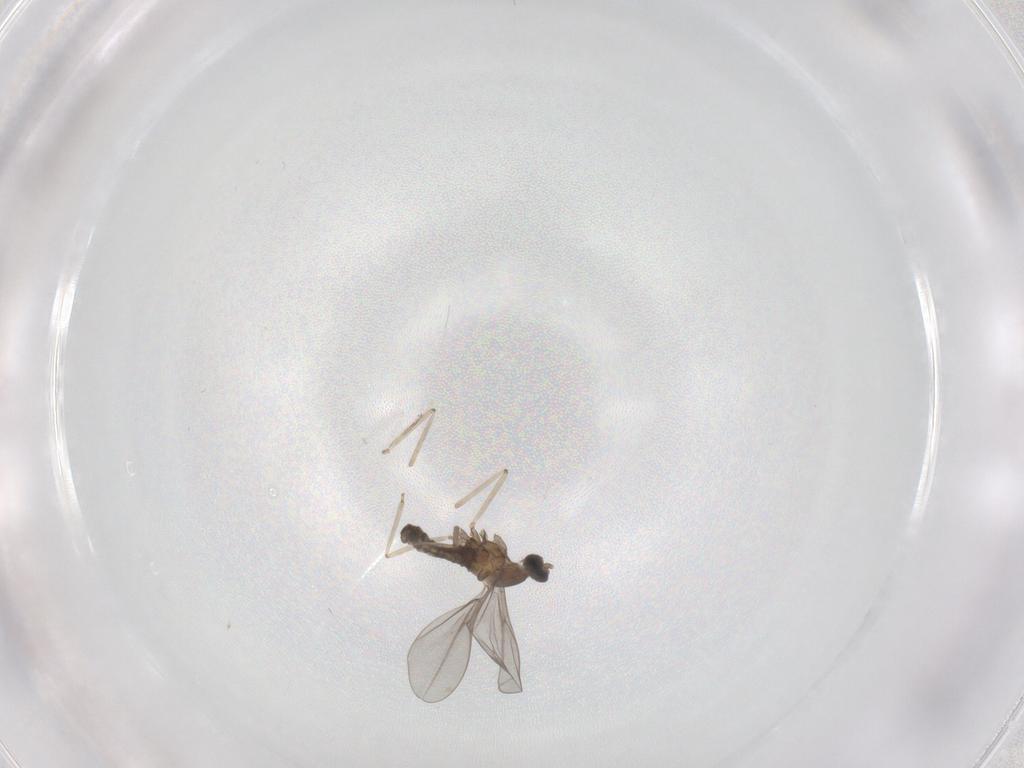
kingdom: Animalia
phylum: Arthropoda
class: Insecta
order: Diptera
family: Cecidomyiidae
